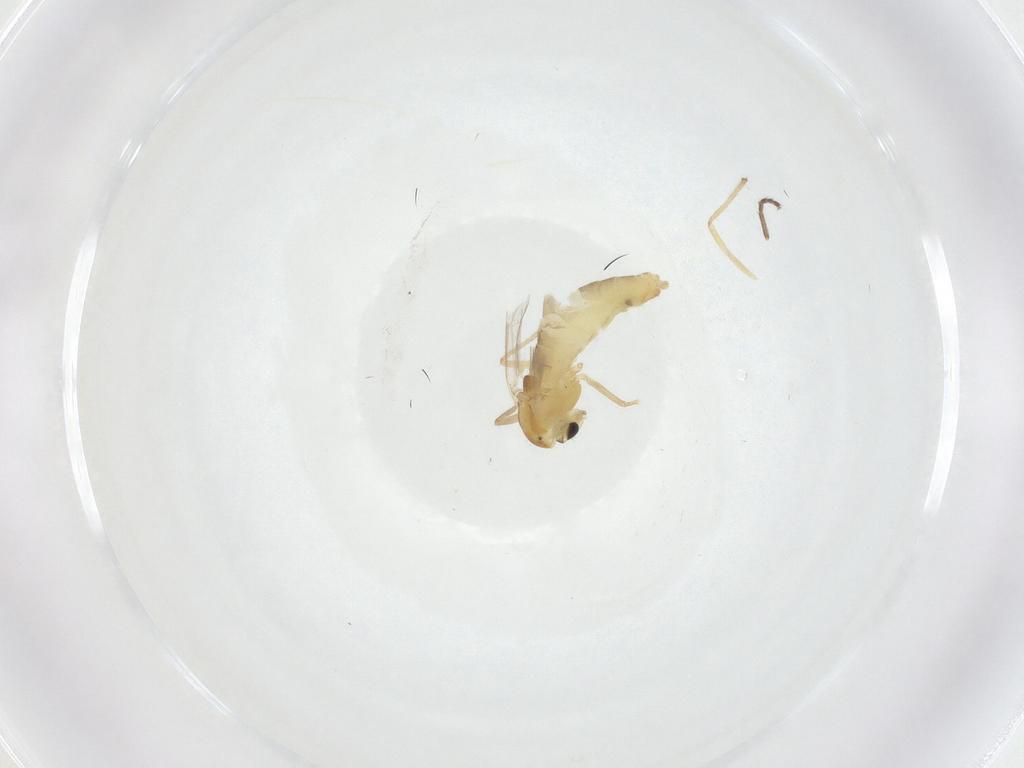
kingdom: Animalia
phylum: Arthropoda
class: Insecta
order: Diptera
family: Chironomidae
